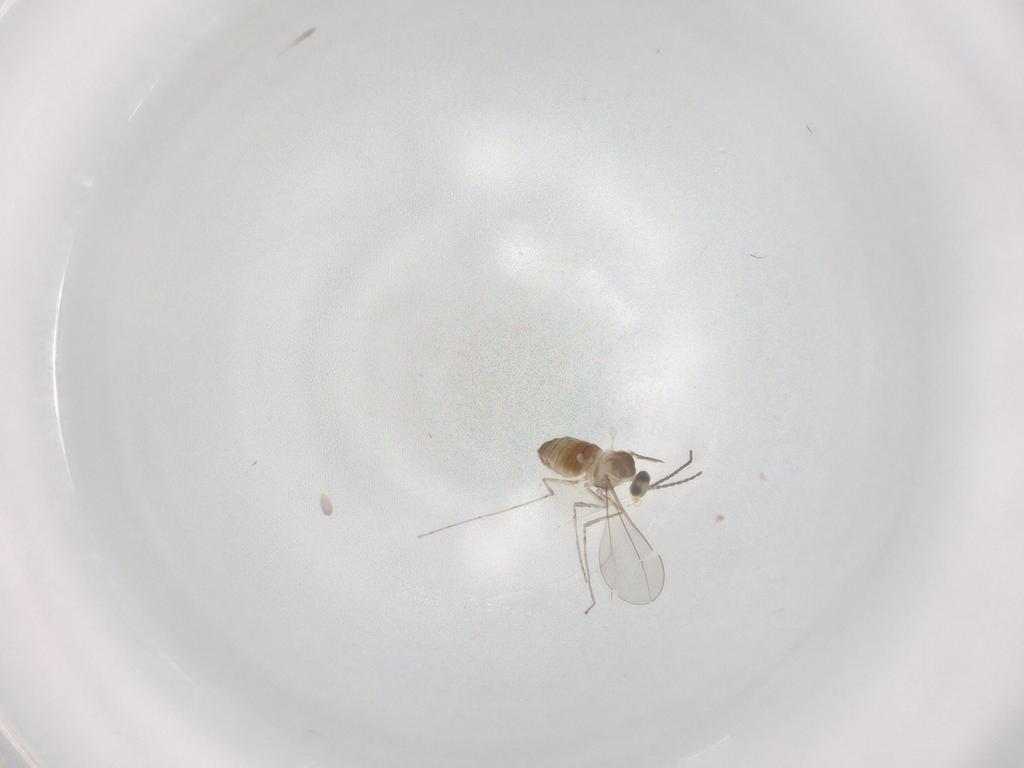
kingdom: Animalia
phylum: Arthropoda
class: Insecta
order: Diptera
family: Cecidomyiidae
